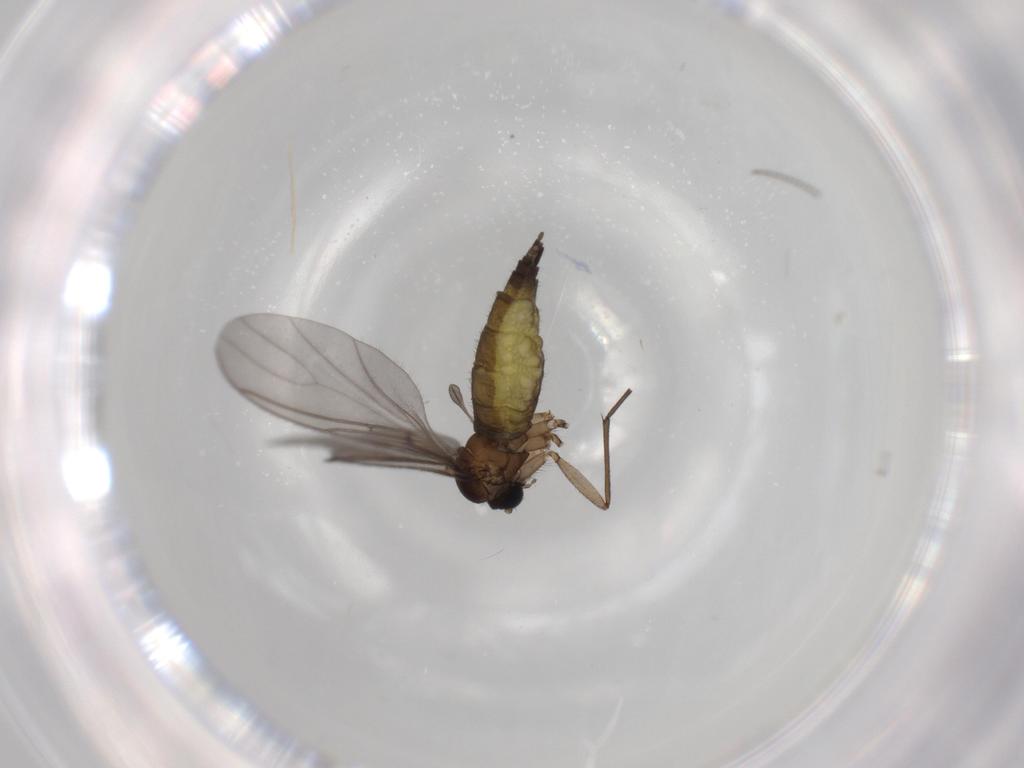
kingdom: Animalia
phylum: Arthropoda
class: Insecta
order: Diptera
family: Sciaridae
